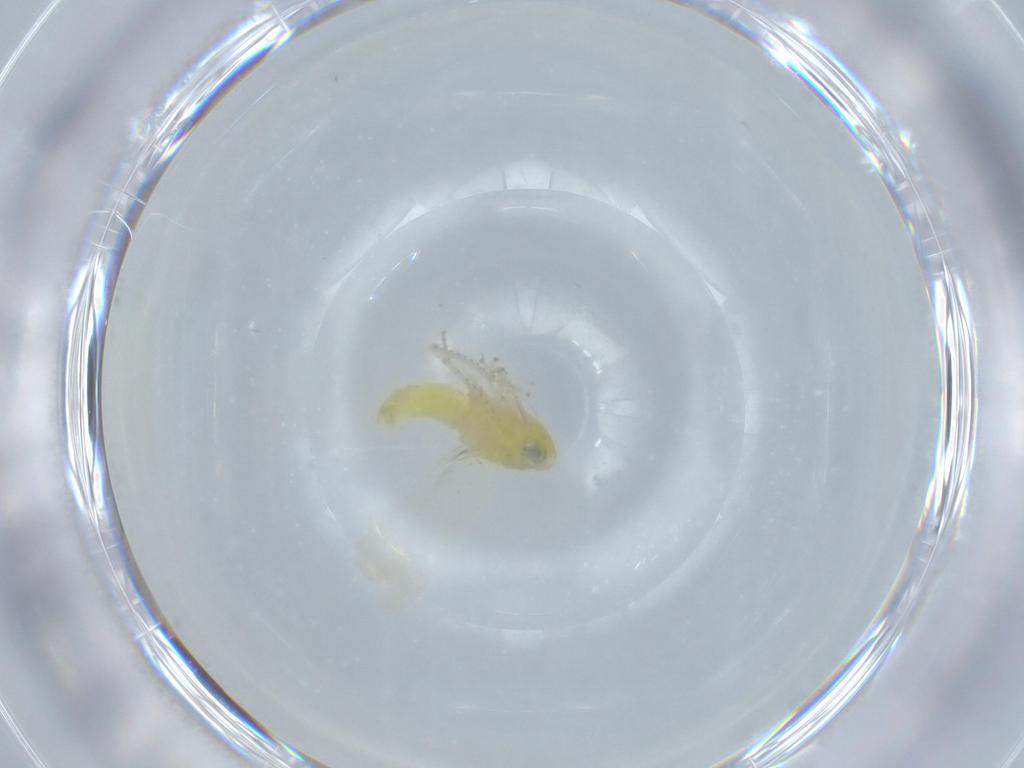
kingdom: Animalia
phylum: Arthropoda
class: Insecta
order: Hemiptera
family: Cicadellidae
